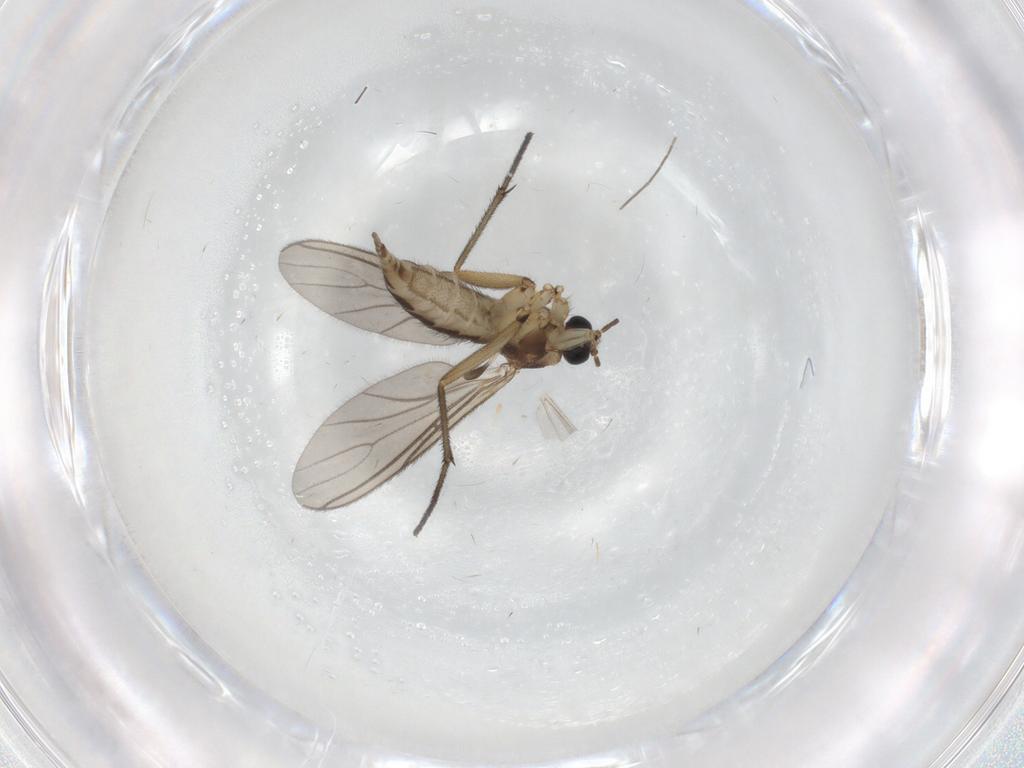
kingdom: Animalia
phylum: Arthropoda
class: Insecta
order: Diptera
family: Sciaridae
